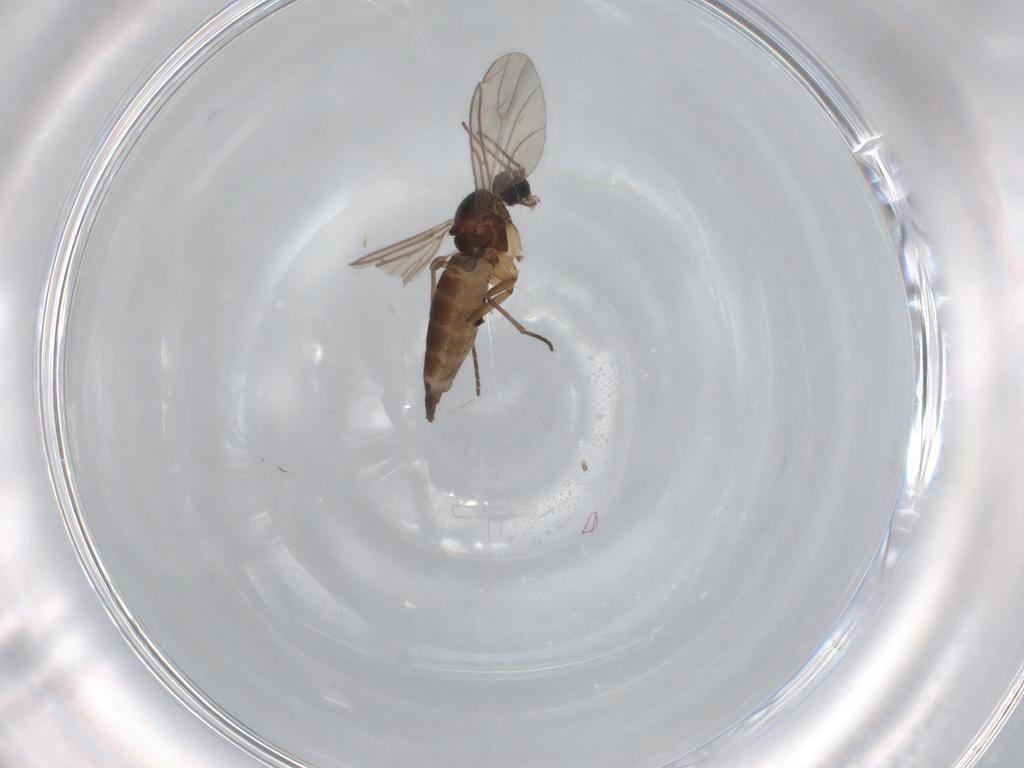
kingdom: Animalia
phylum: Arthropoda
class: Insecta
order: Diptera
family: Sciaridae
